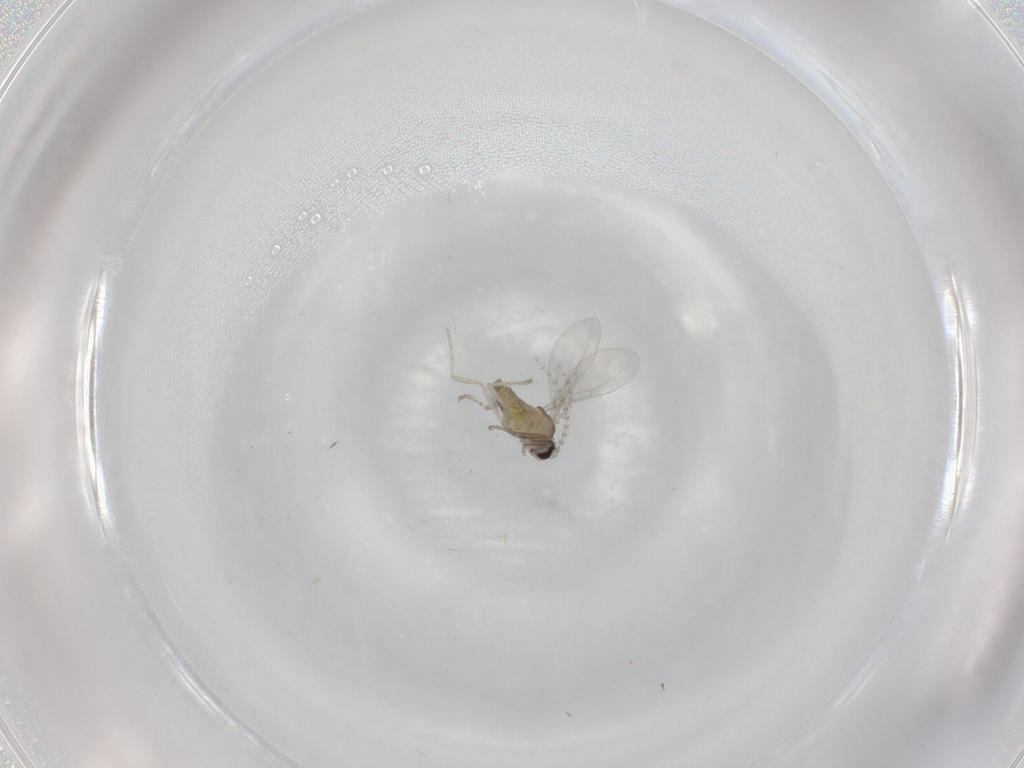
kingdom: Animalia
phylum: Arthropoda
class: Insecta
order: Diptera
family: Cecidomyiidae
